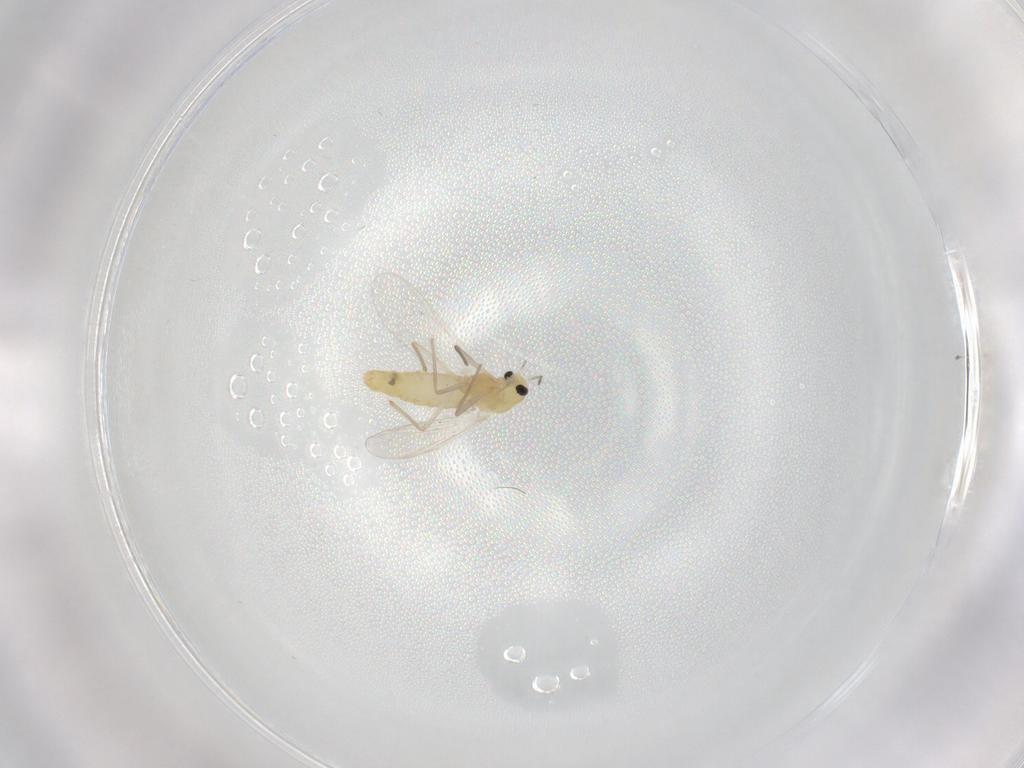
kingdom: Animalia
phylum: Arthropoda
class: Insecta
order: Diptera
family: Chironomidae
